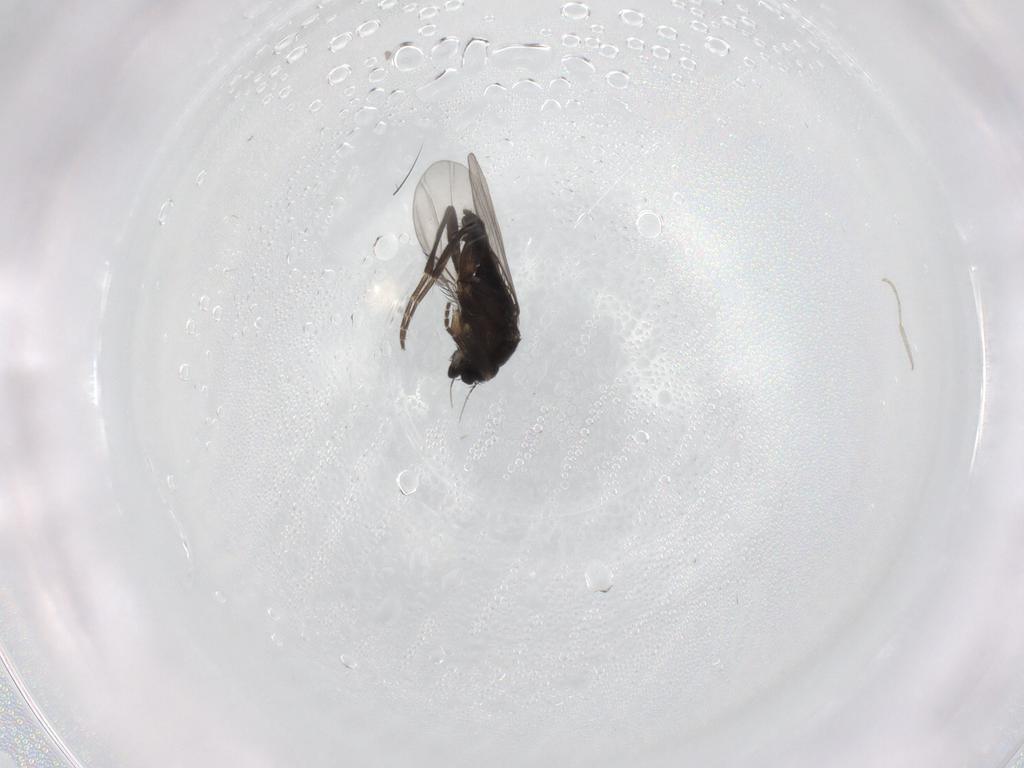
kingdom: Animalia
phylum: Arthropoda
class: Insecta
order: Diptera
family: Phoridae
